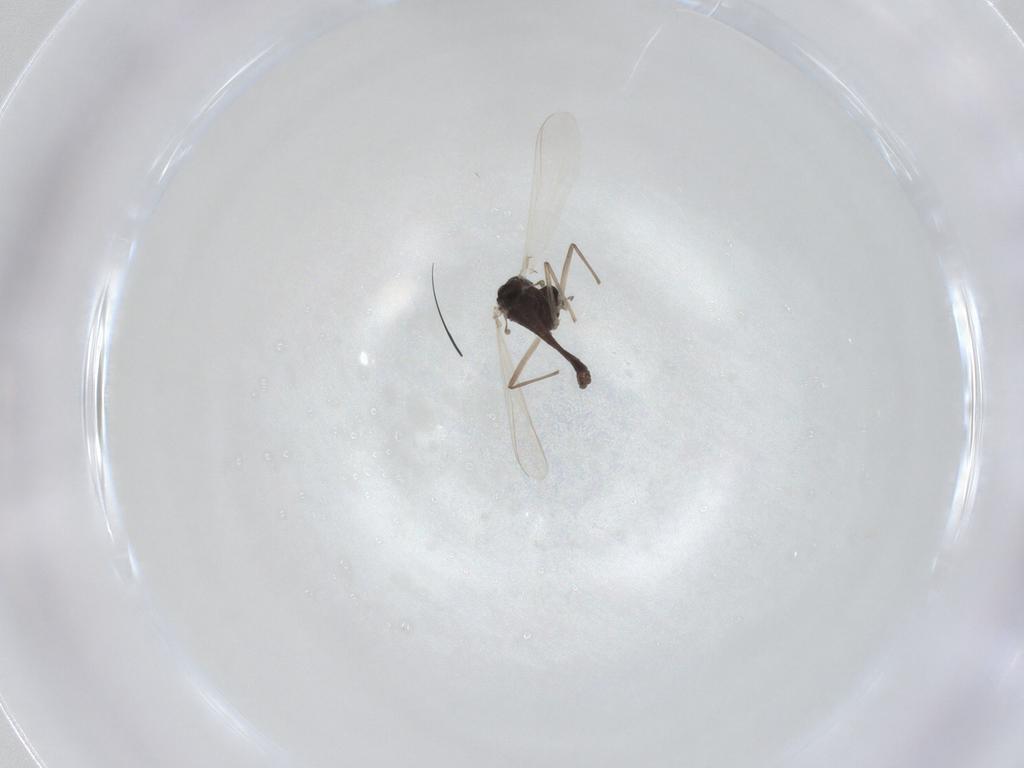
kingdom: Animalia
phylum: Arthropoda
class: Insecta
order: Diptera
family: Chironomidae
